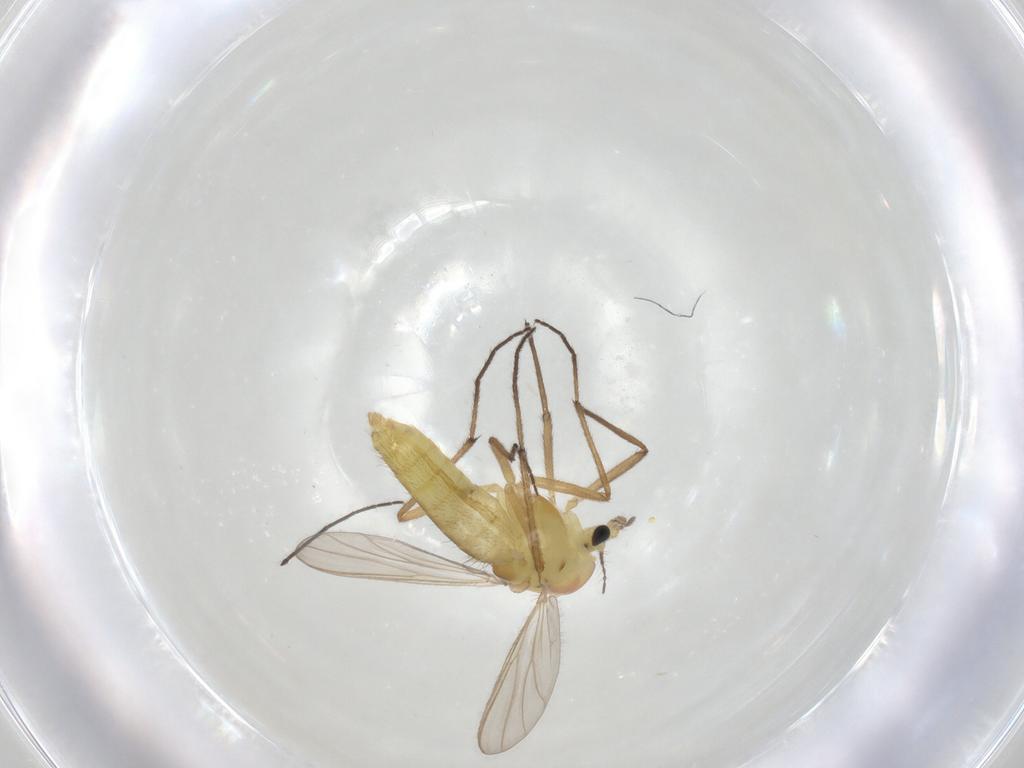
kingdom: Animalia
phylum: Arthropoda
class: Insecta
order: Diptera
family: Chironomidae
